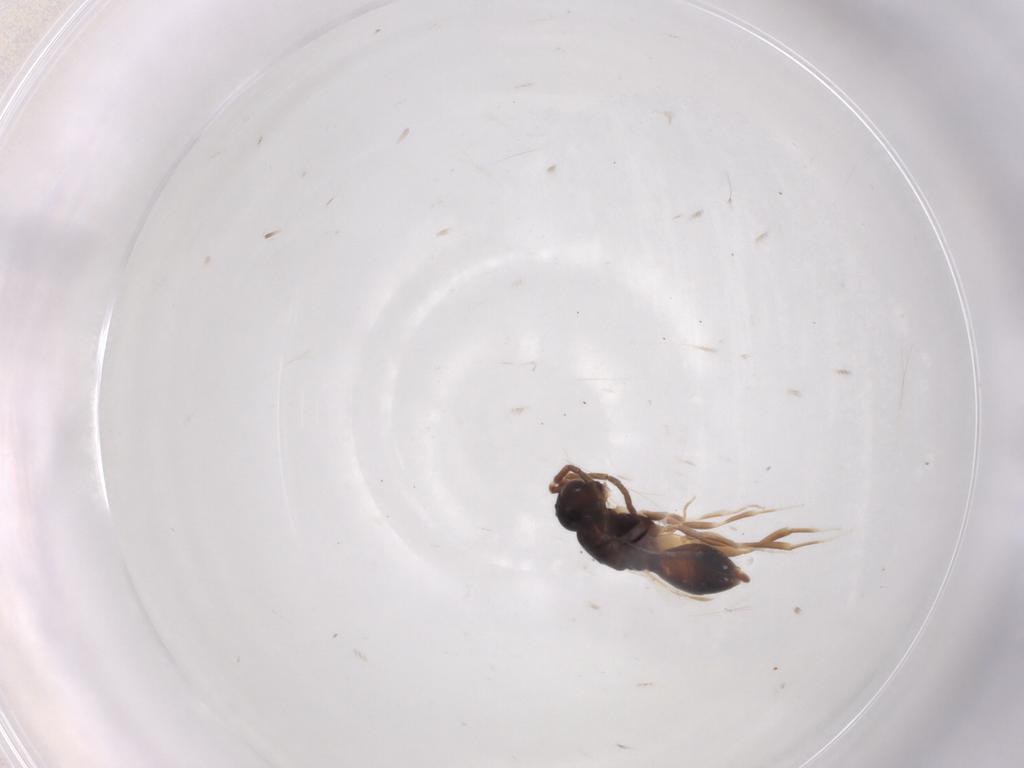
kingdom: Animalia
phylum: Arthropoda
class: Insecta
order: Hymenoptera
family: Megaspilidae
